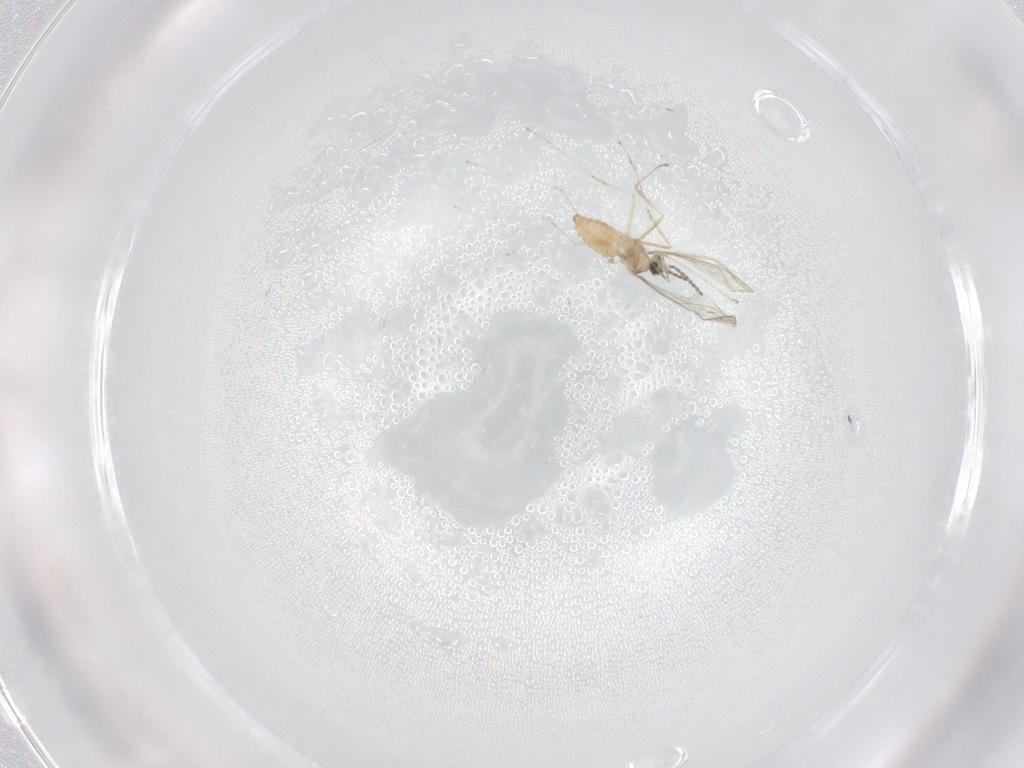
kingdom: Animalia
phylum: Arthropoda
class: Insecta
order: Diptera
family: Cecidomyiidae
